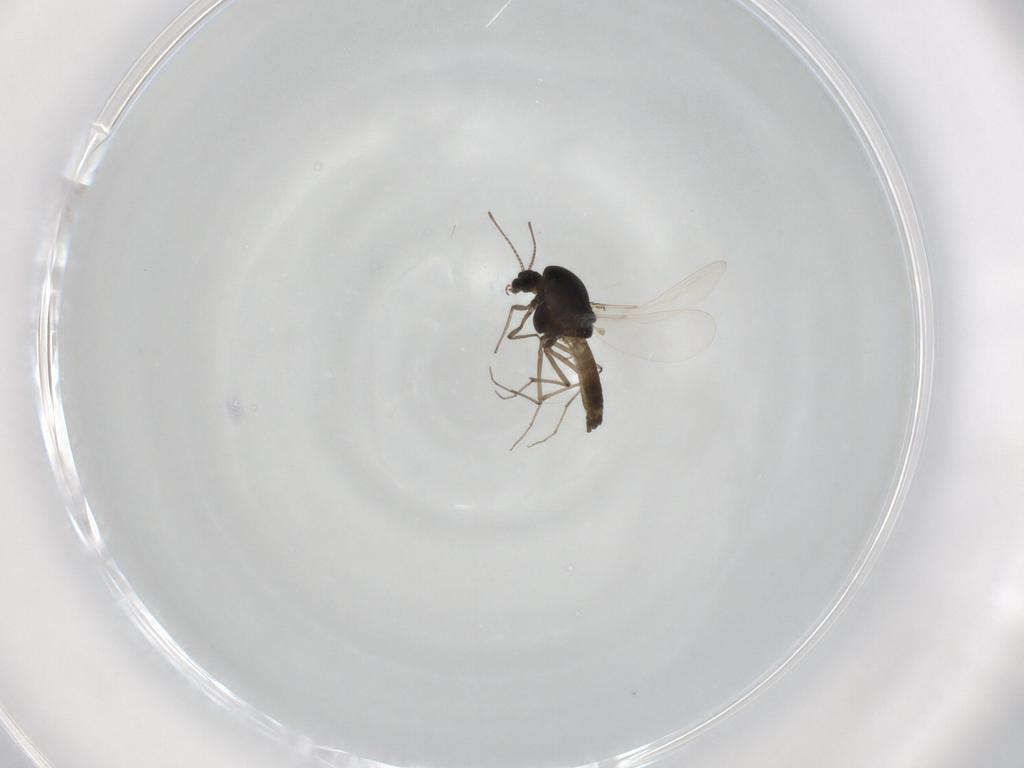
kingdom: Animalia
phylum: Arthropoda
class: Insecta
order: Diptera
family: Chironomidae
